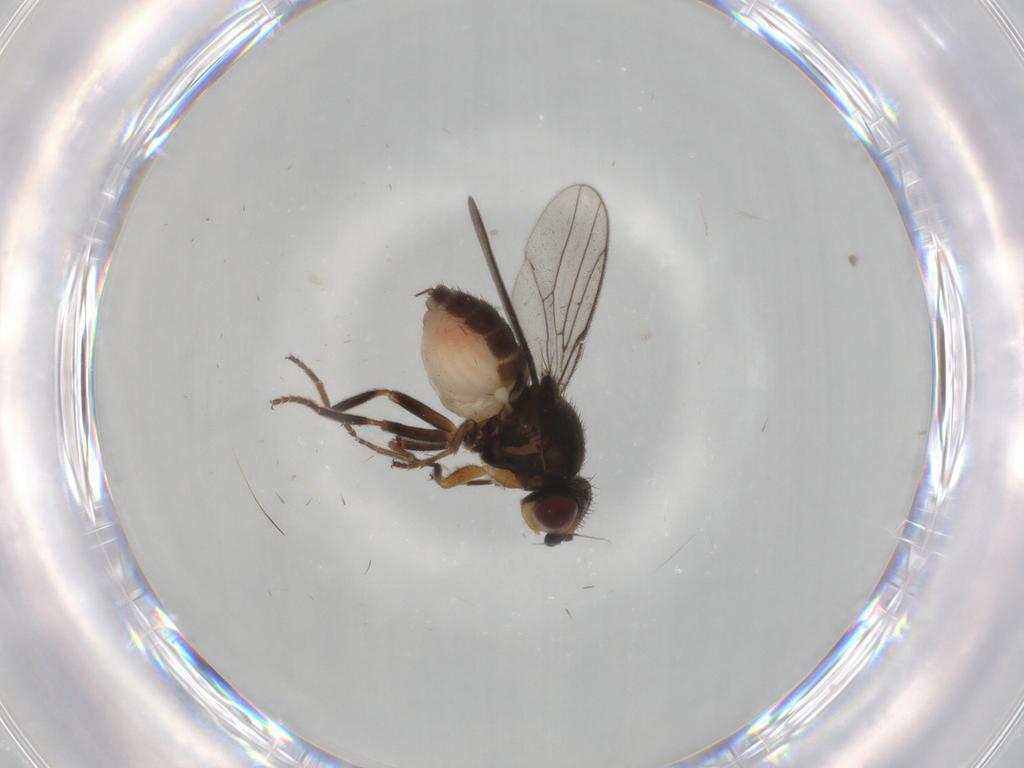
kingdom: Animalia
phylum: Arthropoda
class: Insecta
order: Diptera
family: Chloropidae
